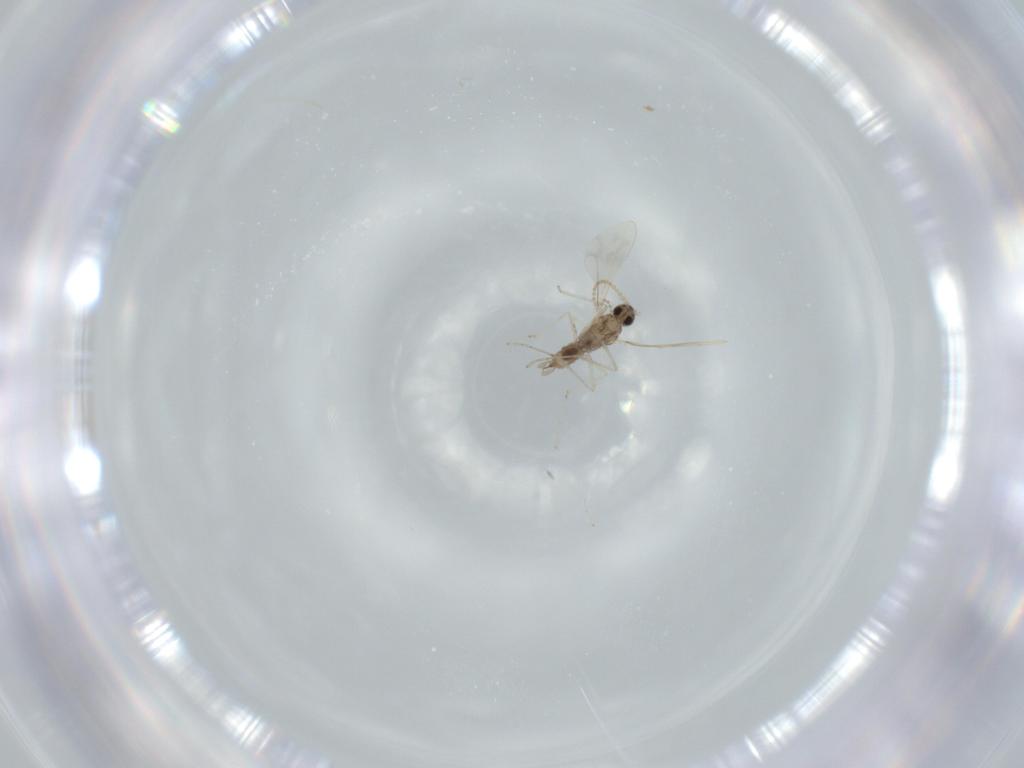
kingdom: Animalia
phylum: Arthropoda
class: Insecta
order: Diptera
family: Cecidomyiidae
